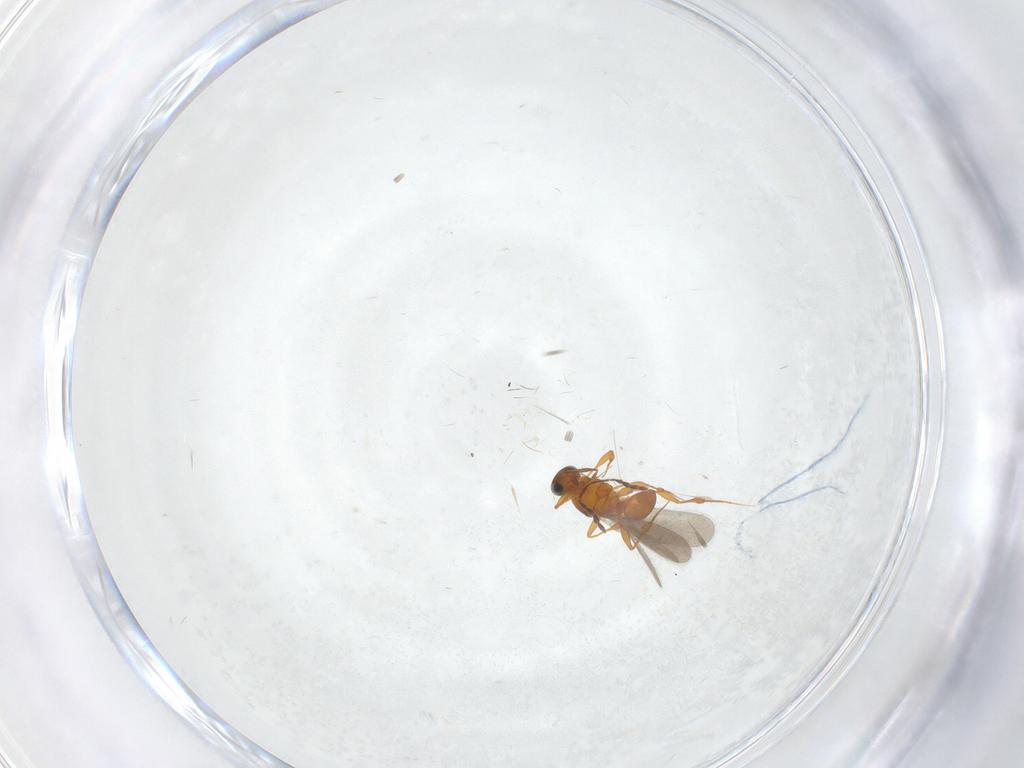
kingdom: Animalia
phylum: Arthropoda
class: Insecta
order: Hymenoptera
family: Platygastridae
